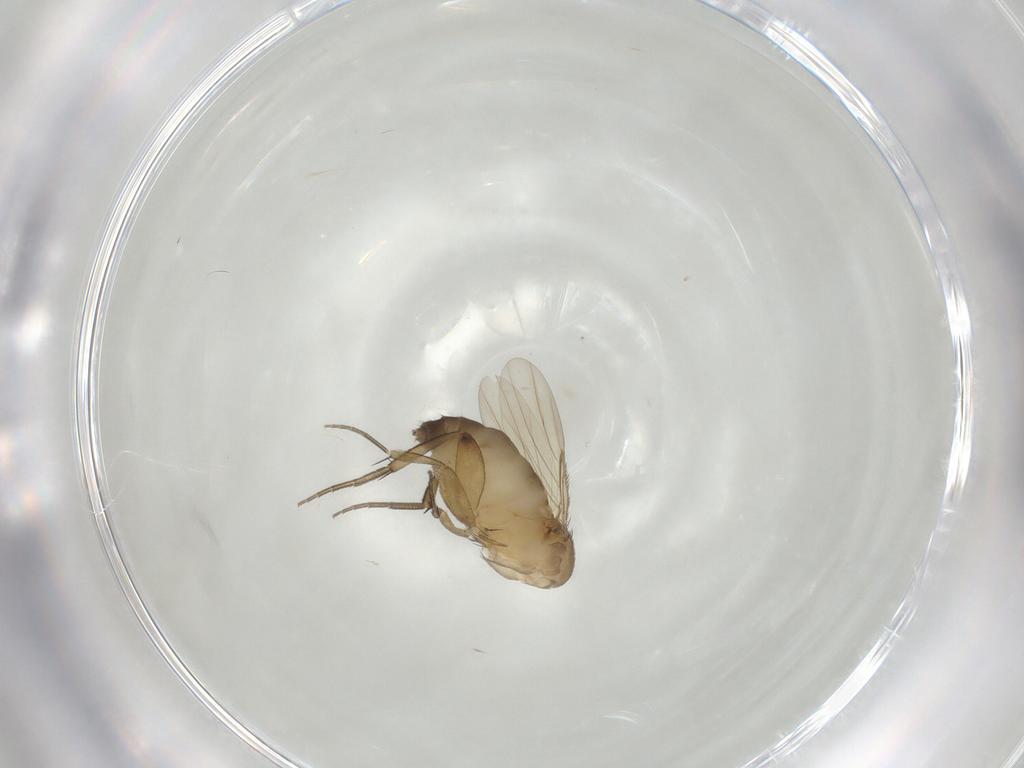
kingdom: Animalia
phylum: Arthropoda
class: Insecta
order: Diptera
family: Phoridae
